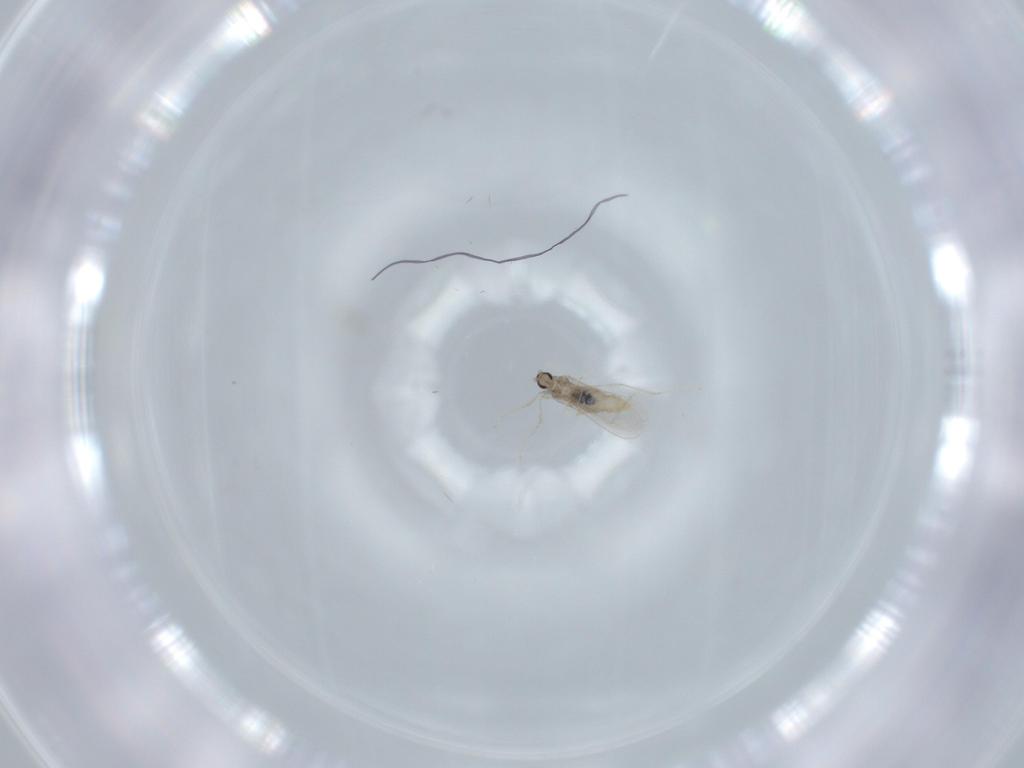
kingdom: Animalia
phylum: Arthropoda
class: Insecta
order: Diptera
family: Cecidomyiidae
